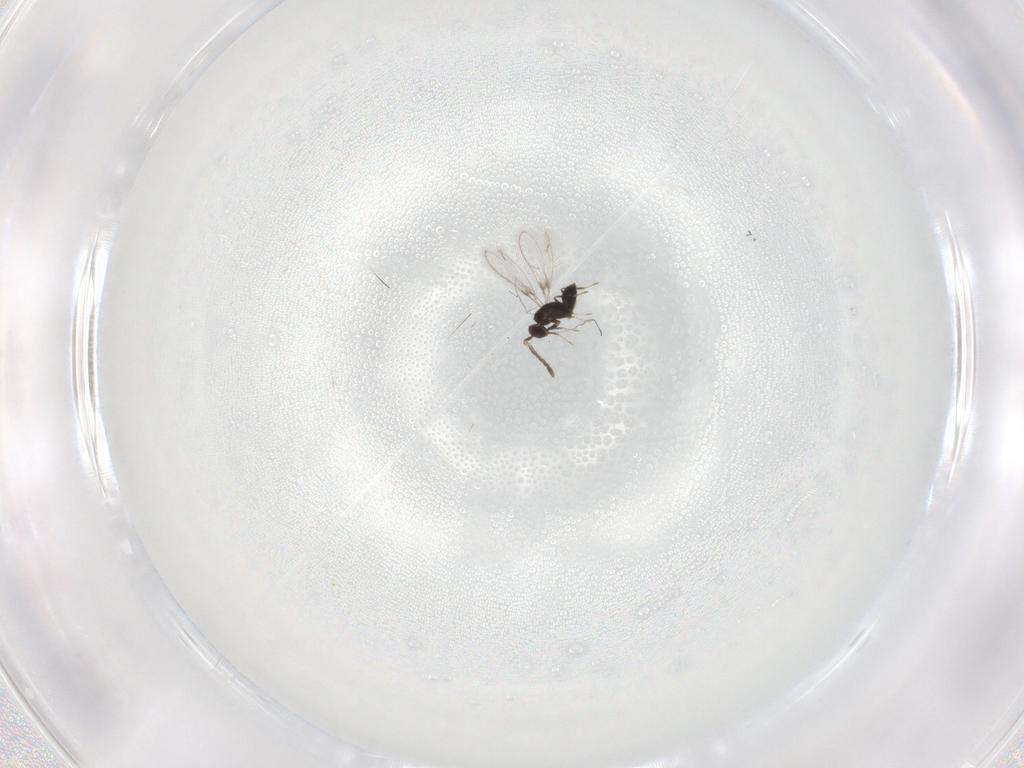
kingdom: Animalia
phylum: Arthropoda
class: Insecta
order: Hymenoptera
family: Mymaridae
